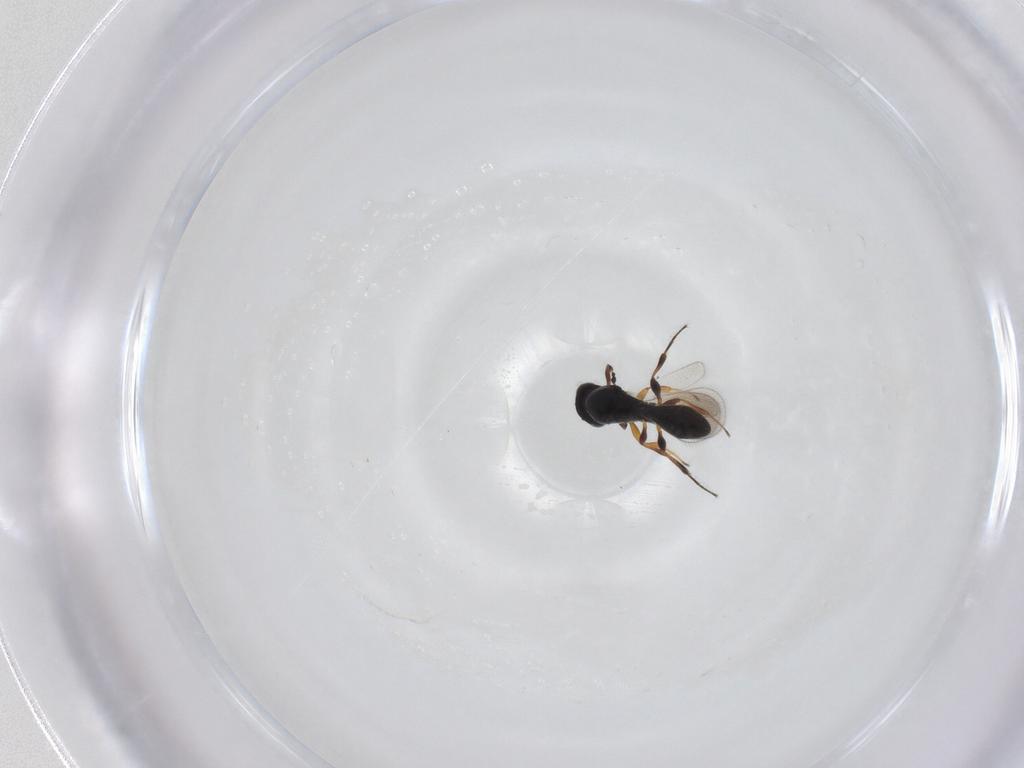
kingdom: Animalia
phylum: Arthropoda
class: Insecta
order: Hymenoptera
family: Platygastridae
